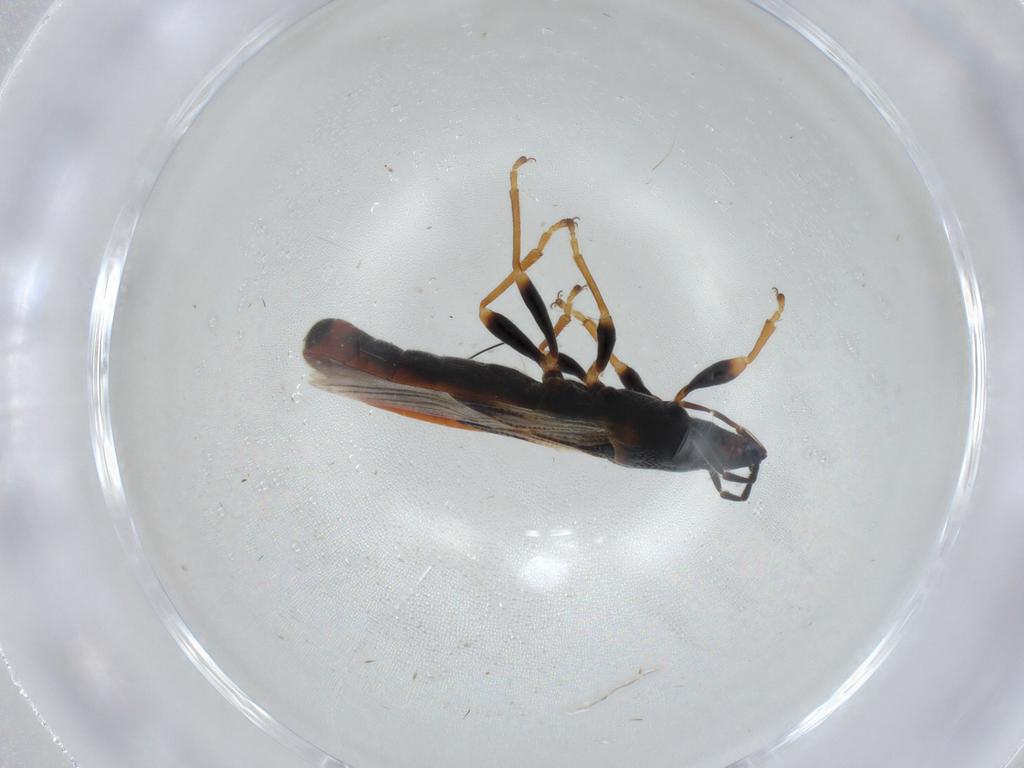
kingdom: Animalia
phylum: Arthropoda
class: Insecta
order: Hemiptera
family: Blissidae
